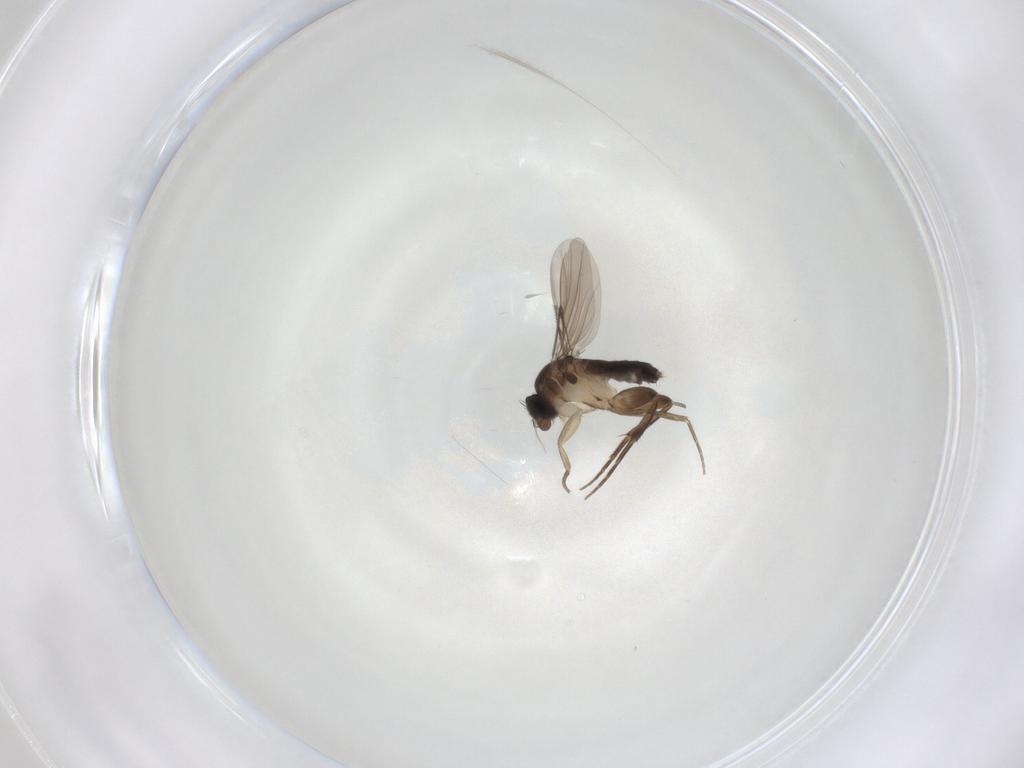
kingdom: Animalia
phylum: Arthropoda
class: Insecta
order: Diptera
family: Phoridae
